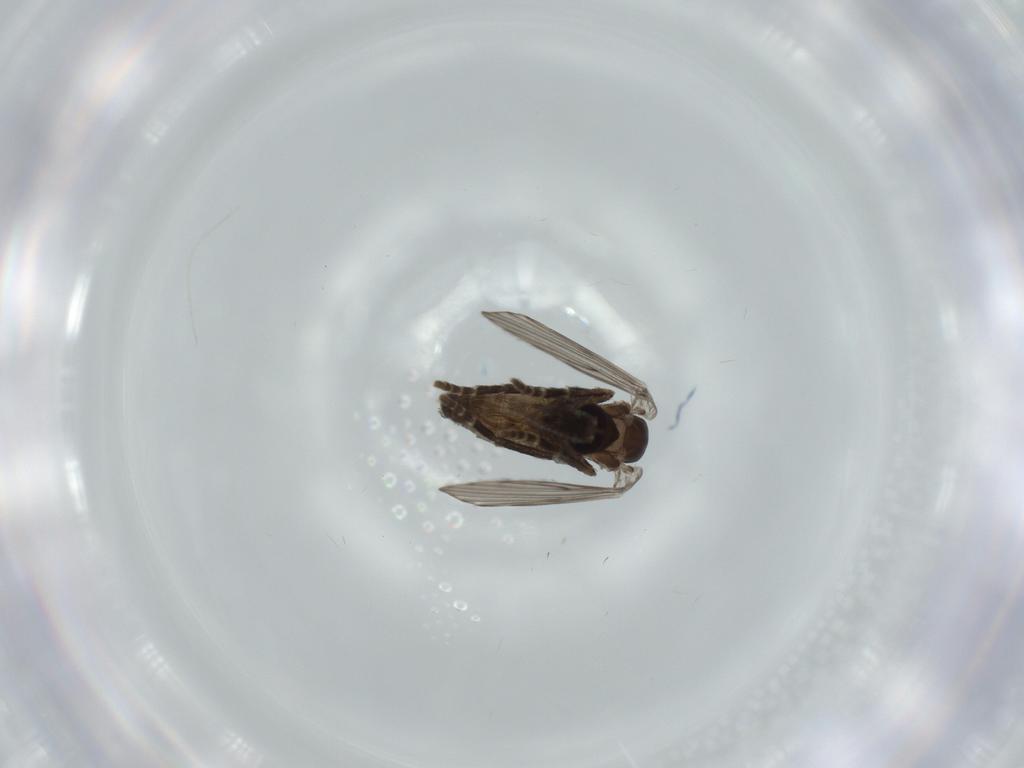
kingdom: Animalia
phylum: Arthropoda
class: Insecta
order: Diptera
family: Psychodidae
